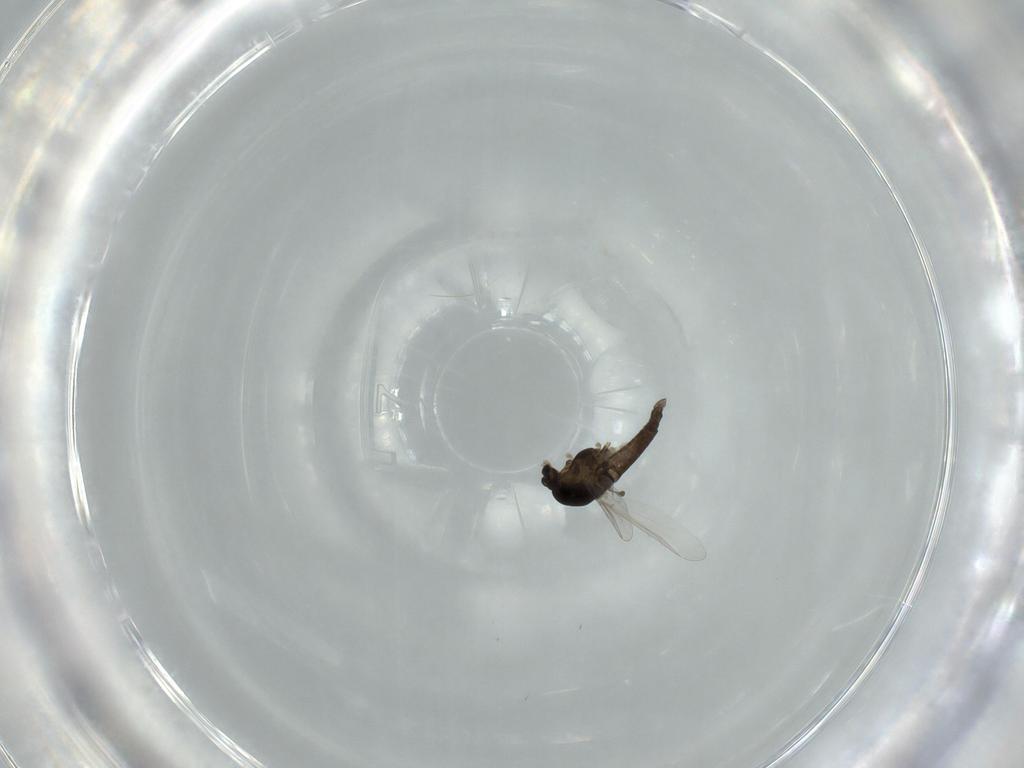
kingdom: Animalia
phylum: Arthropoda
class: Insecta
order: Diptera
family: Chironomidae
